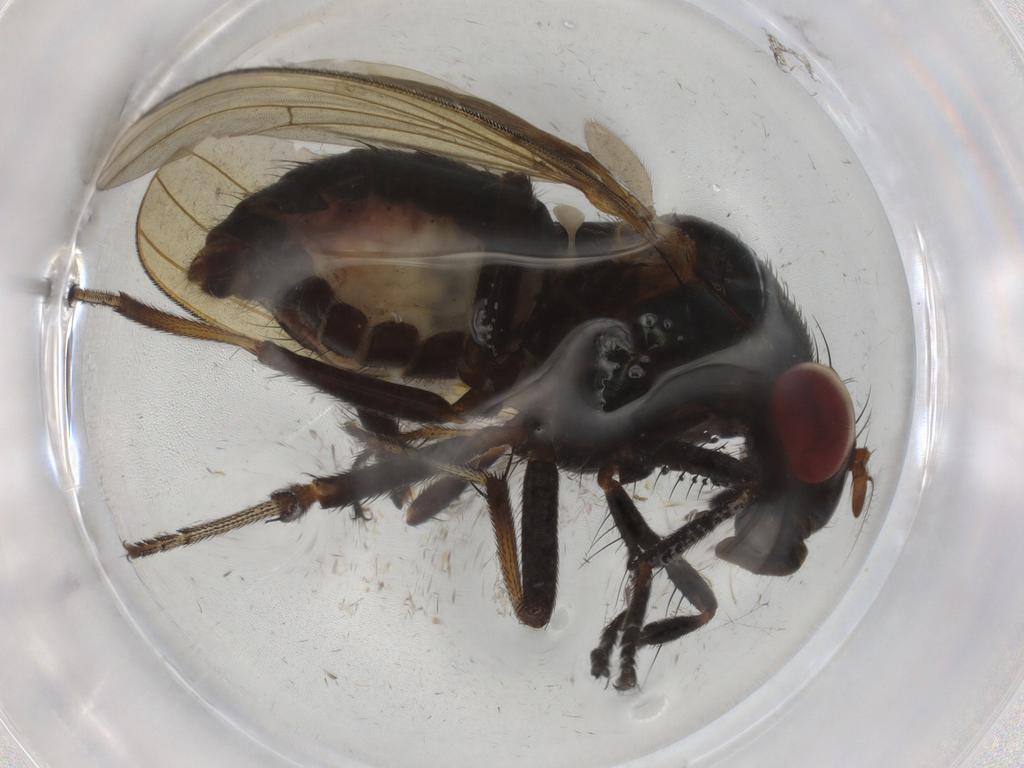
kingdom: Animalia
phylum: Arthropoda
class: Insecta
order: Diptera
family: Lauxaniidae
